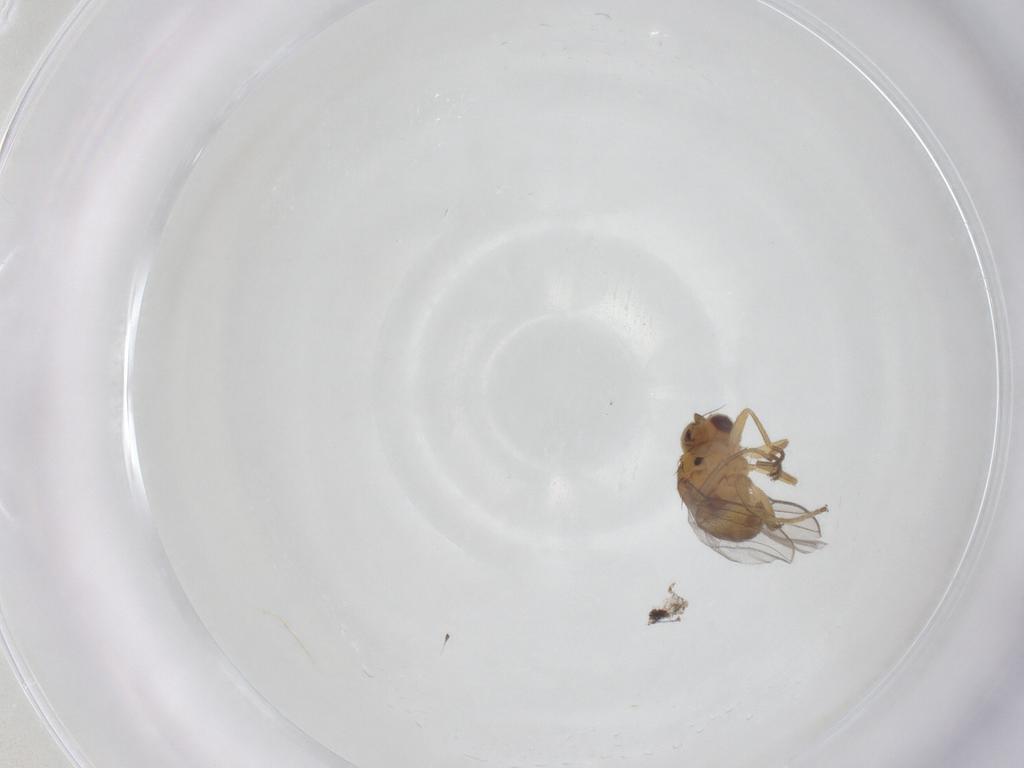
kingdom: Animalia
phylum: Arthropoda
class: Insecta
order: Diptera
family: Chloropidae
